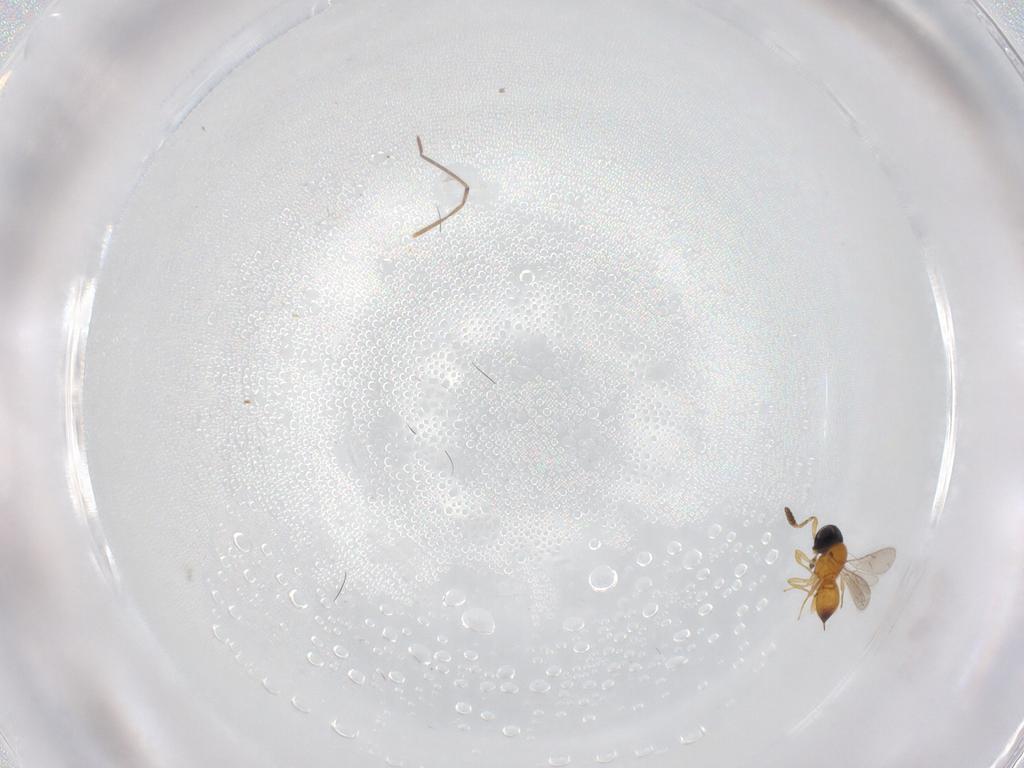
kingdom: Animalia
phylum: Arthropoda
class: Insecta
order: Hymenoptera
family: Scelionidae
